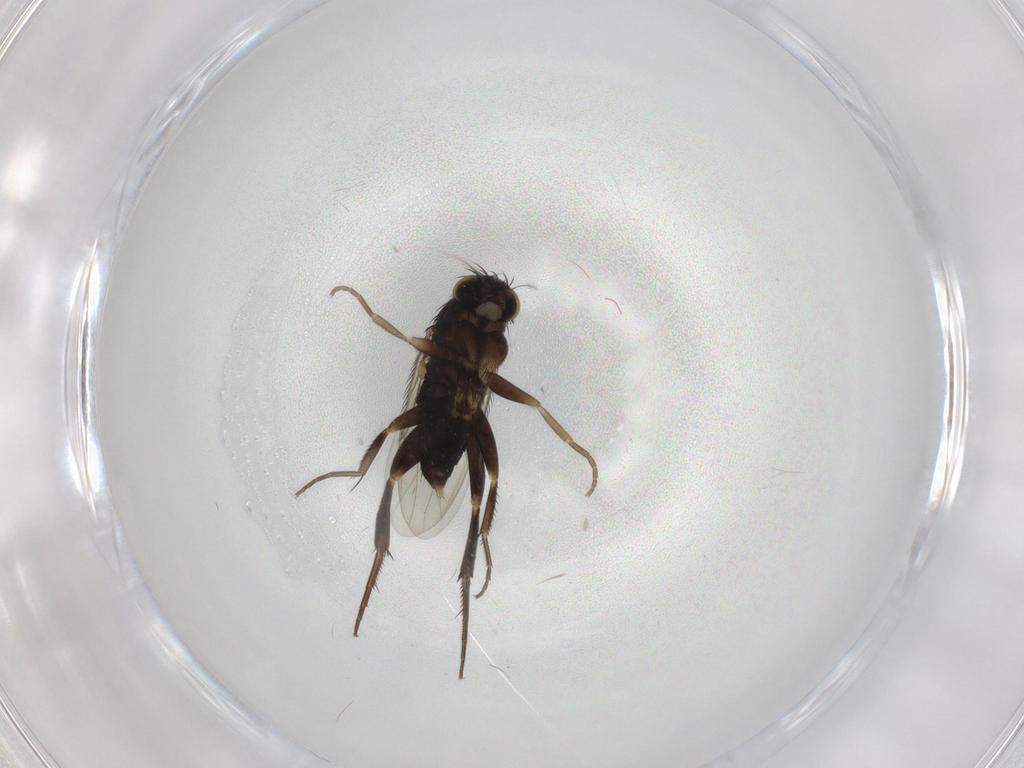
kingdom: Animalia
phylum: Arthropoda
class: Insecta
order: Diptera
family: Phoridae
